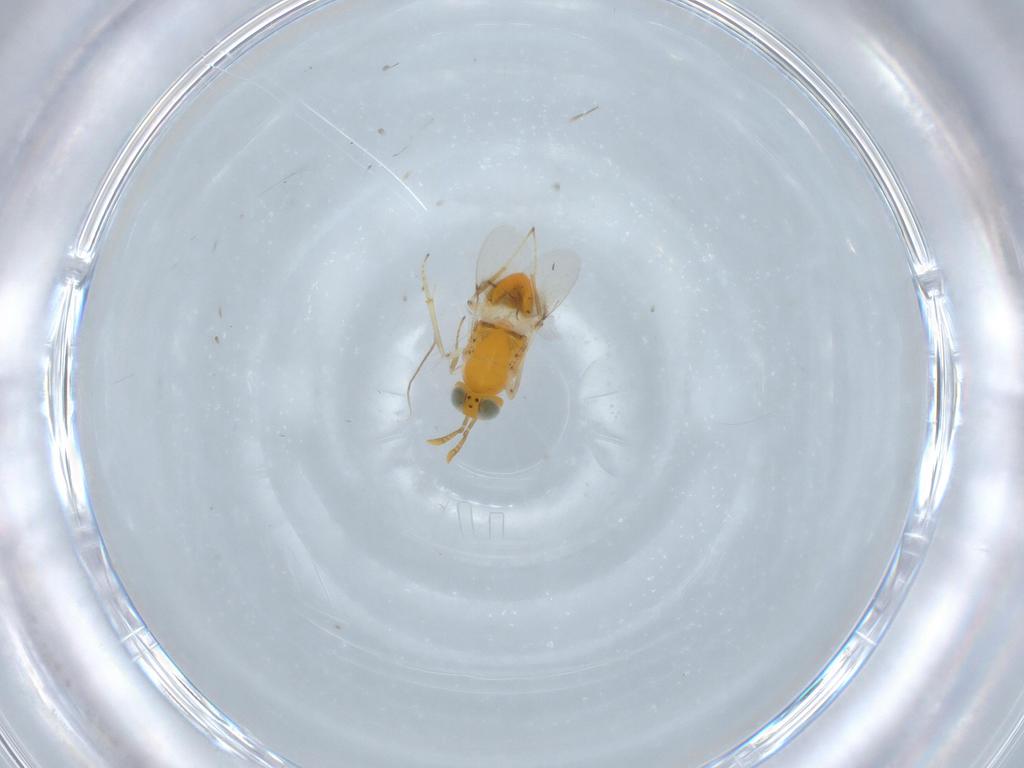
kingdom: Animalia
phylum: Arthropoda
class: Insecta
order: Hymenoptera
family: Encyrtidae
